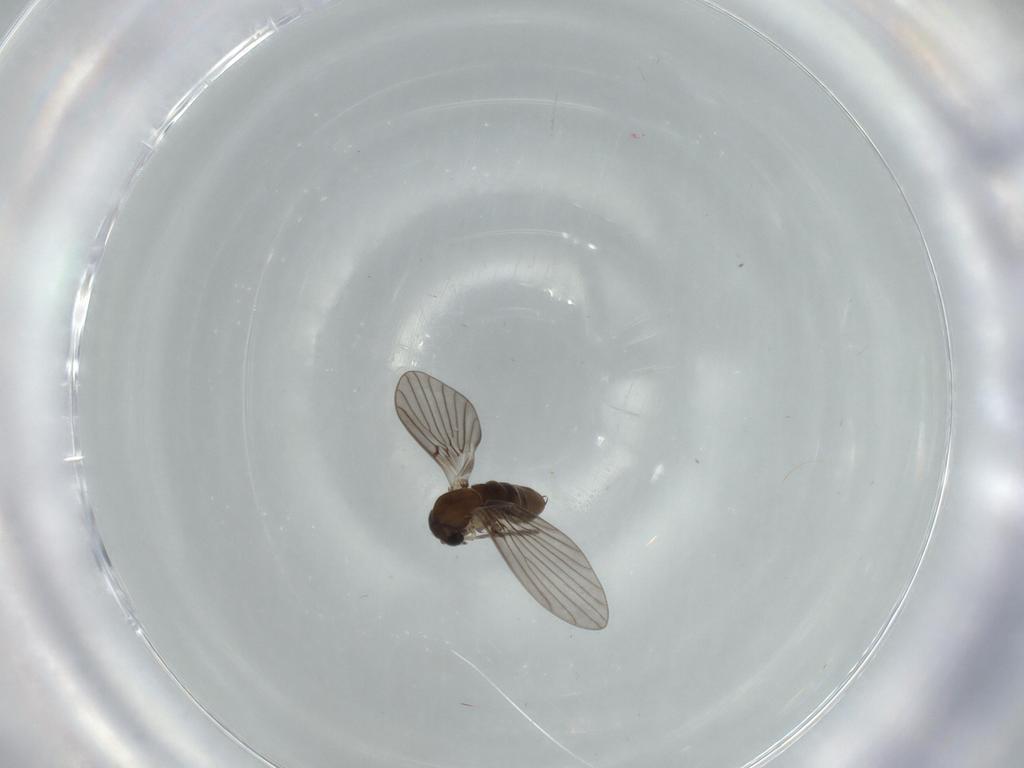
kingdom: Animalia
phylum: Arthropoda
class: Insecta
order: Diptera
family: Psychodidae
